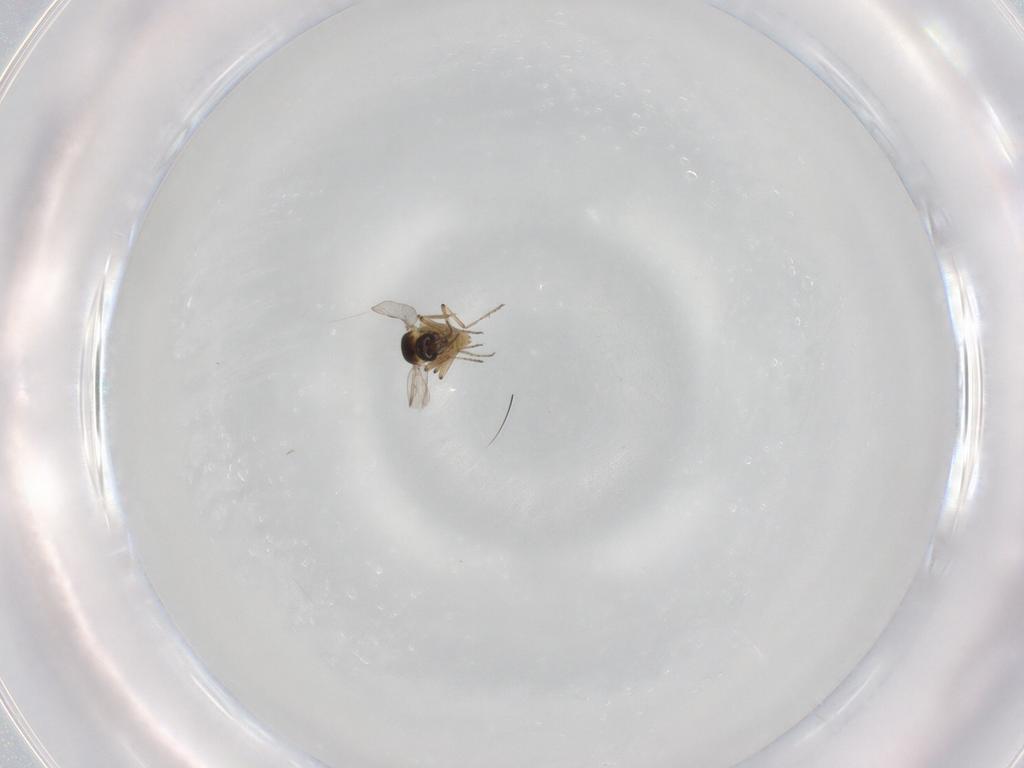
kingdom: Animalia
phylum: Arthropoda
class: Insecta
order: Diptera
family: Ceratopogonidae
